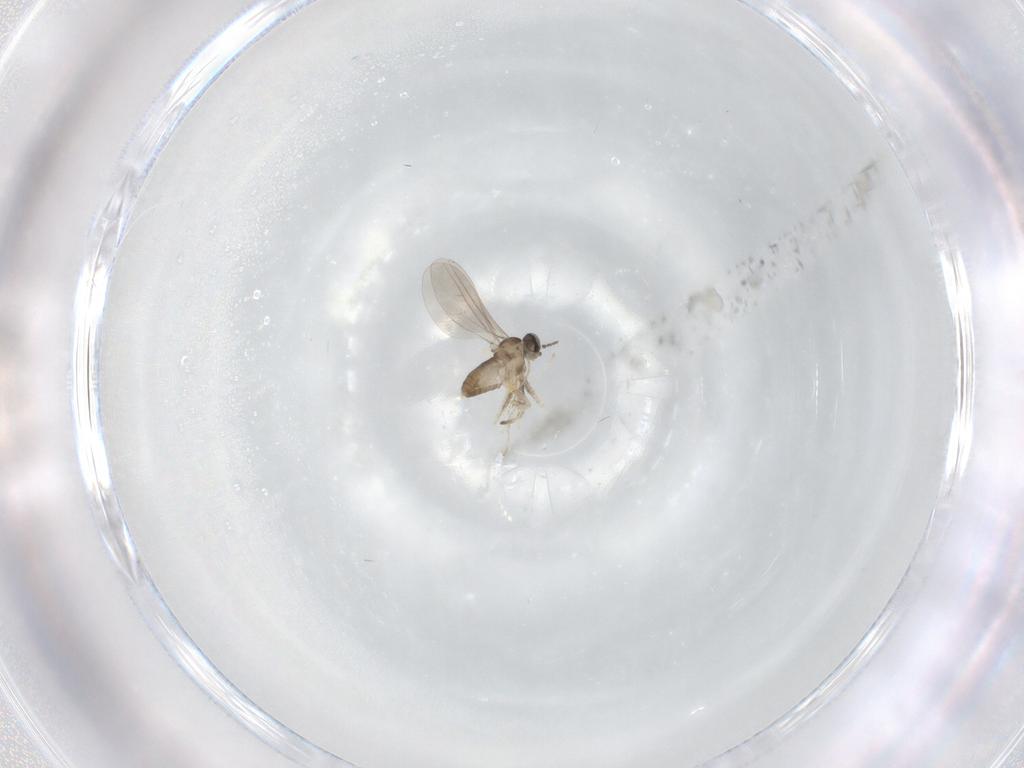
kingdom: Animalia
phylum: Arthropoda
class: Insecta
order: Diptera
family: Cecidomyiidae
